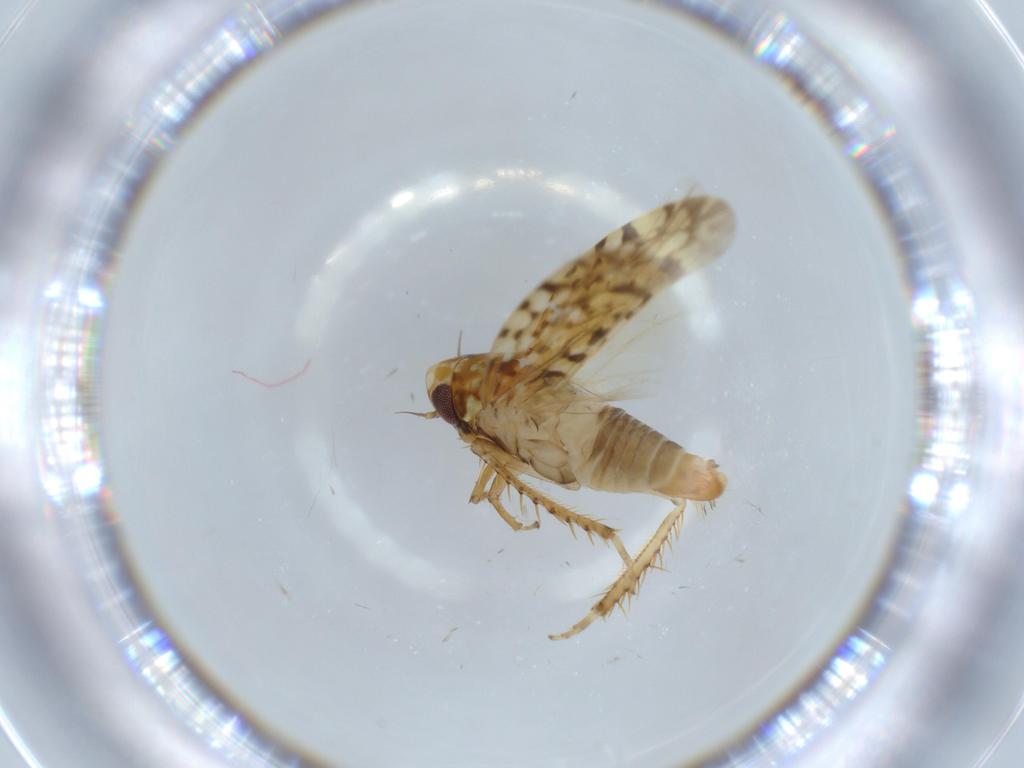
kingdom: Animalia
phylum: Arthropoda
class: Insecta
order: Hemiptera
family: Cicadellidae
